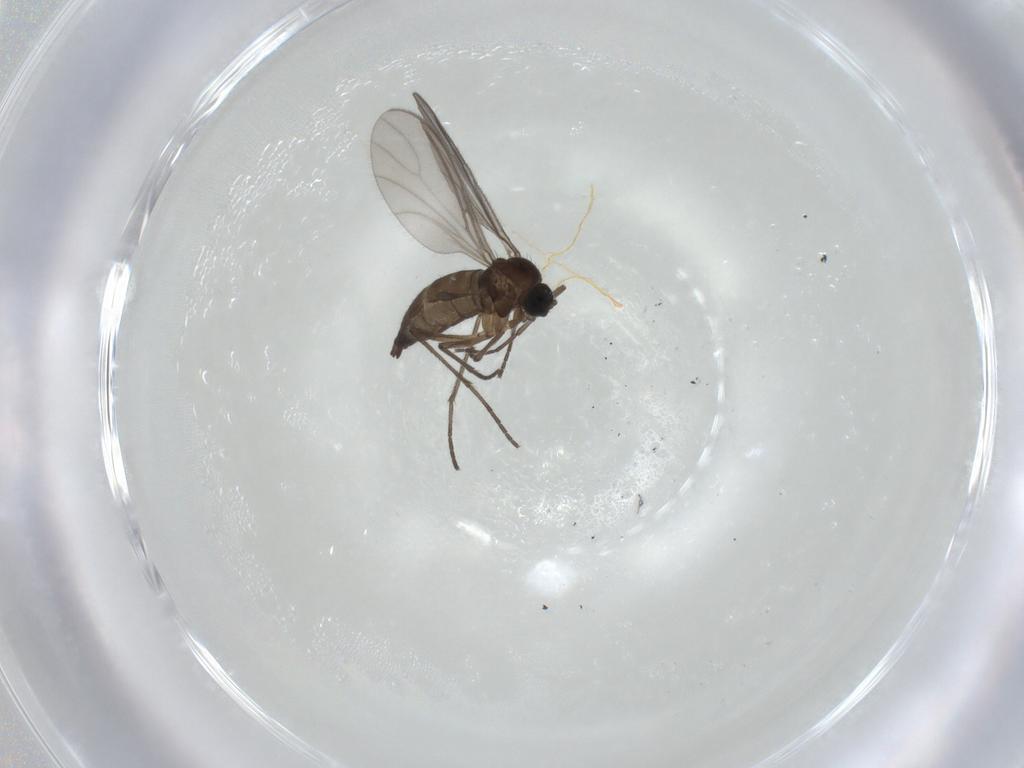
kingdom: Animalia
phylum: Arthropoda
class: Insecta
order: Diptera
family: Sciaridae
